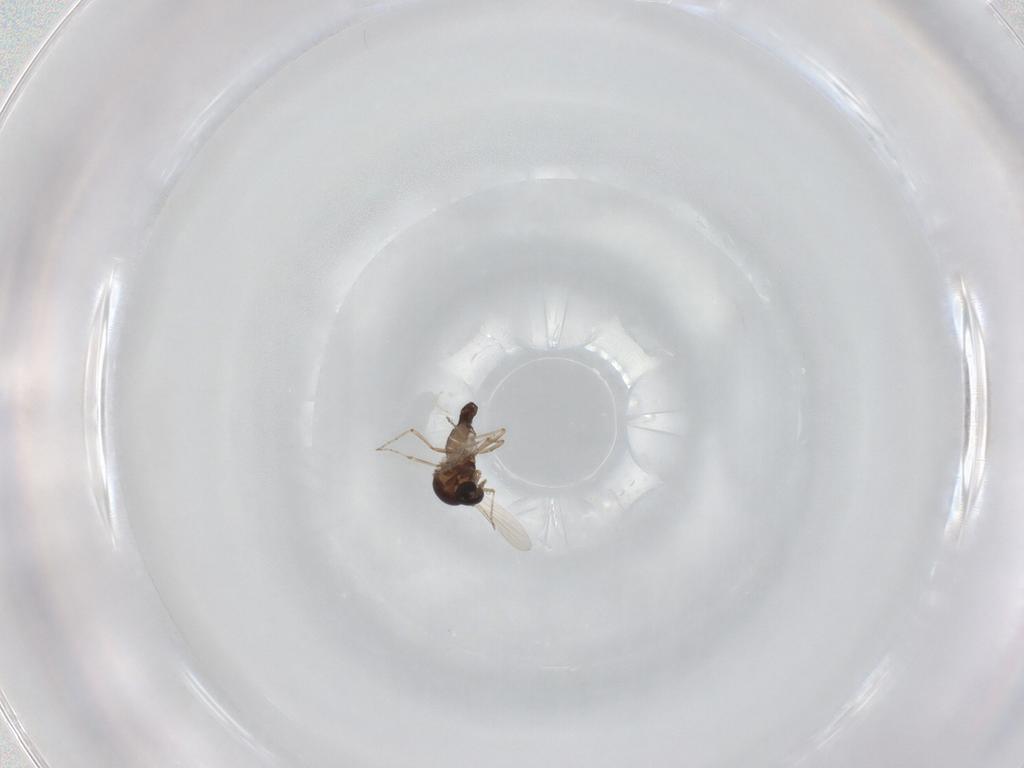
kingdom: Animalia
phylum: Arthropoda
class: Insecta
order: Diptera
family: Ceratopogonidae
